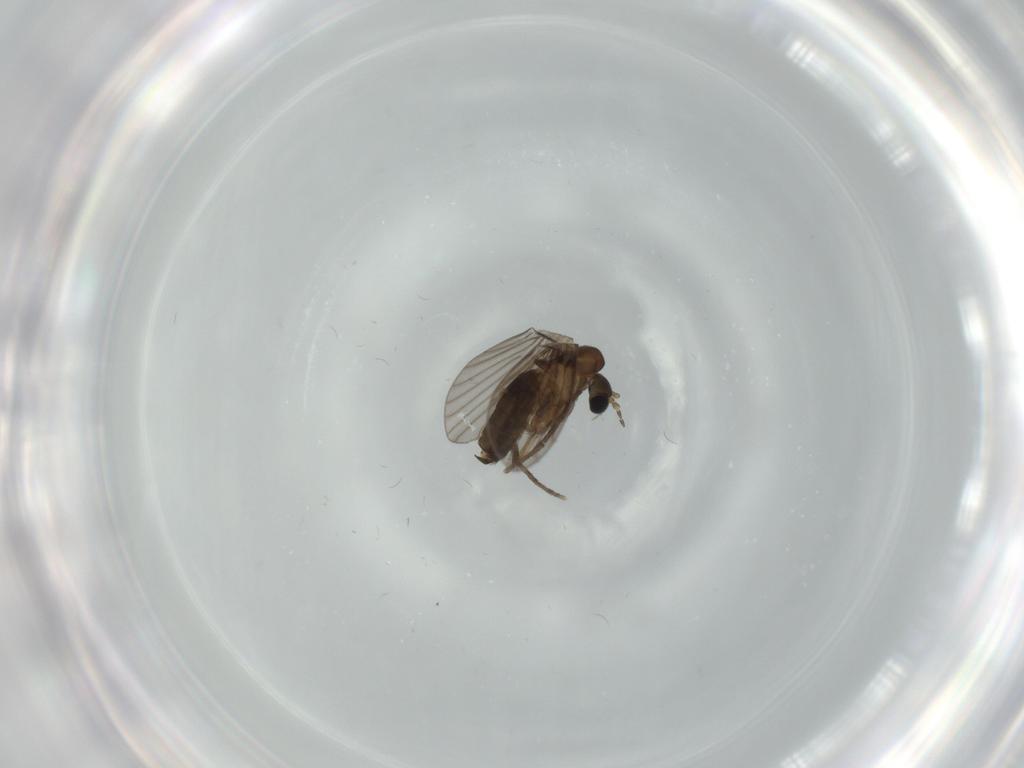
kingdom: Animalia
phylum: Arthropoda
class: Insecta
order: Diptera
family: Psychodidae
